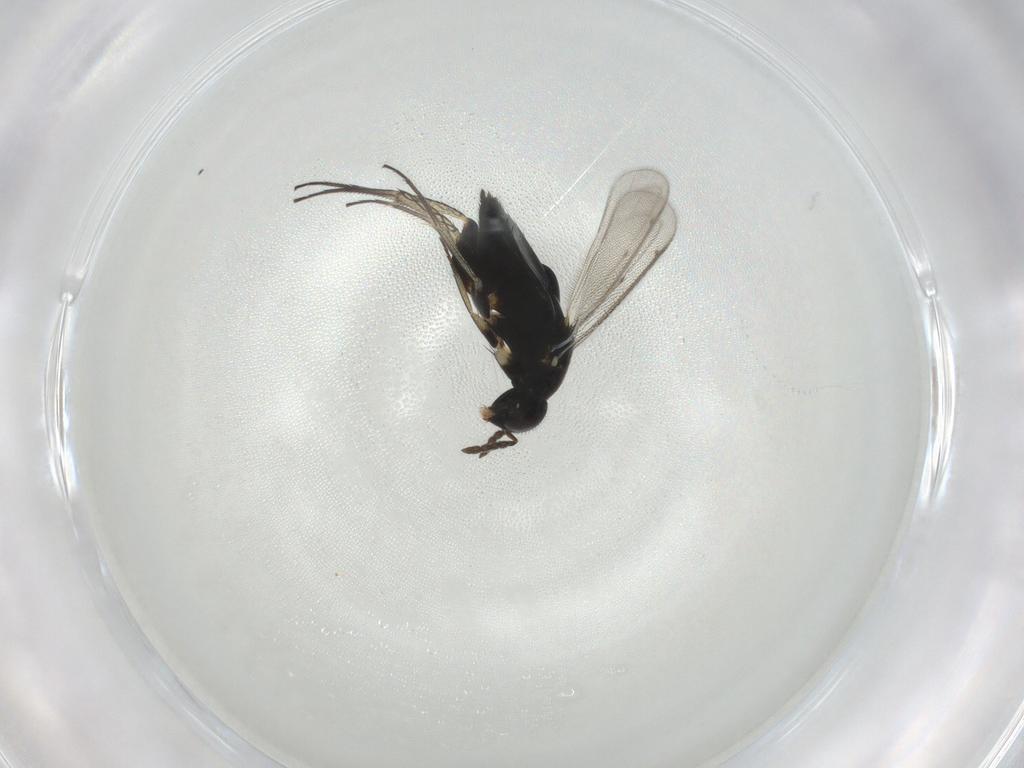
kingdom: Animalia
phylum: Arthropoda
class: Insecta
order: Hymenoptera
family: Eulophidae
